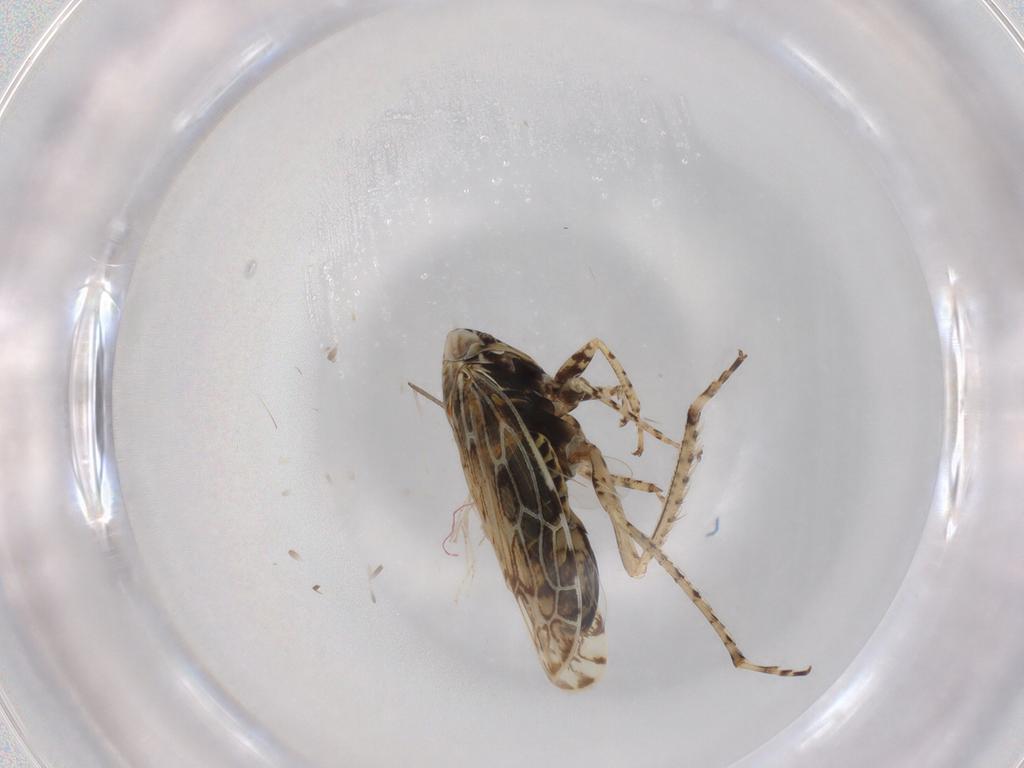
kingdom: Animalia
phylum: Arthropoda
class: Insecta
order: Hemiptera
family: Cicadellidae
